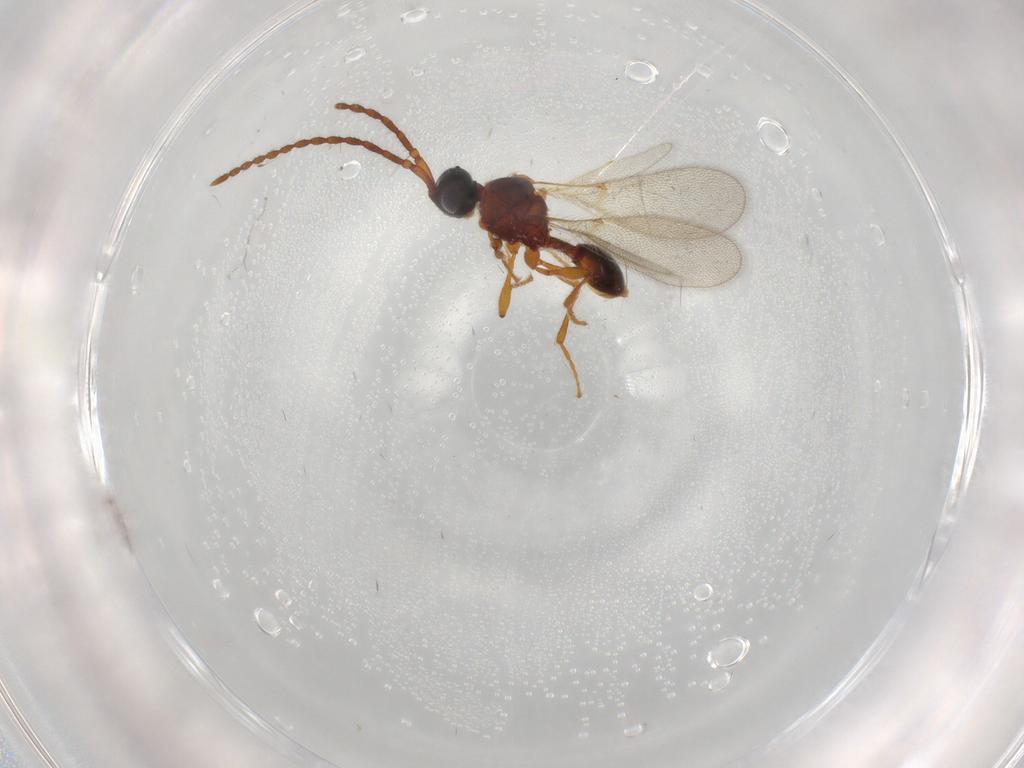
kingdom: Animalia
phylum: Arthropoda
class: Insecta
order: Hymenoptera
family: Diapriidae
